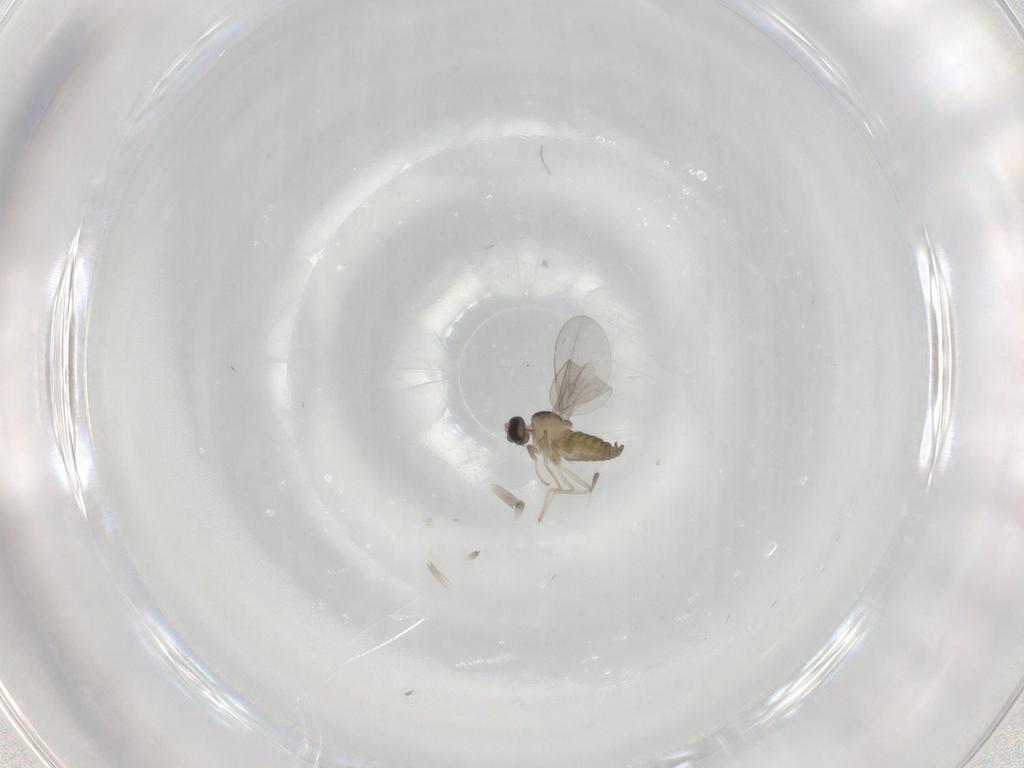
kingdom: Animalia
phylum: Arthropoda
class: Insecta
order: Diptera
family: Cecidomyiidae
